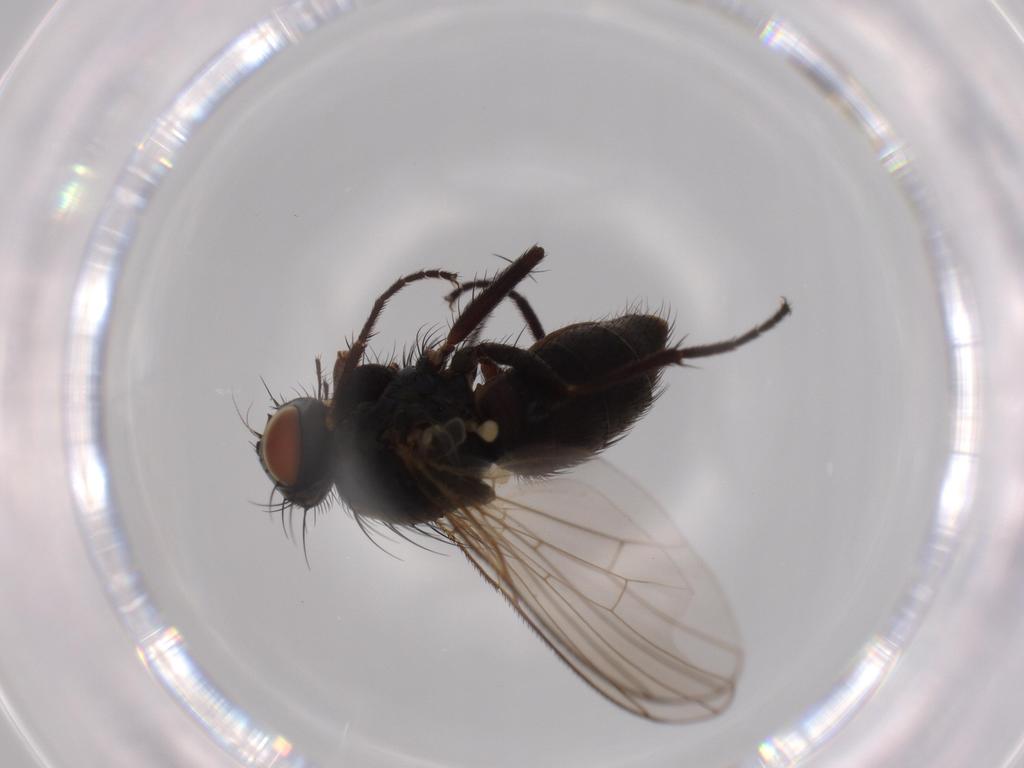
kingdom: Animalia
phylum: Arthropoda
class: Insecta
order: Diptera
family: Muscidae
